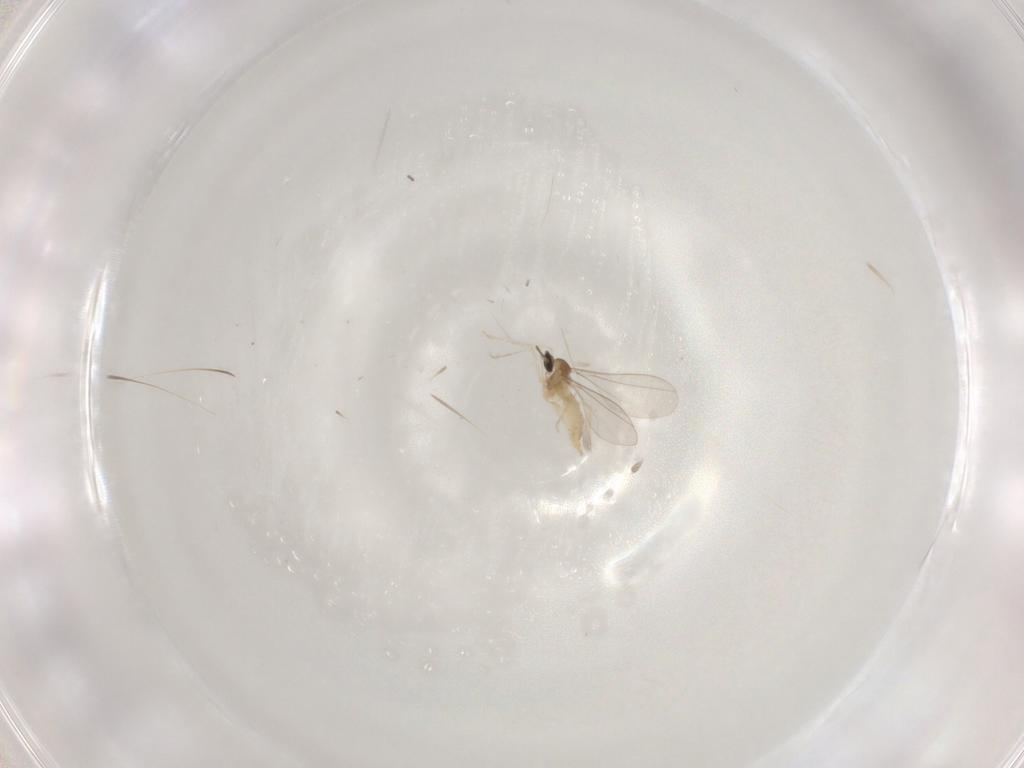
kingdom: Animalia
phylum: Arthropoda
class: Insecta
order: Diptera
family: Cecidomyiidae
